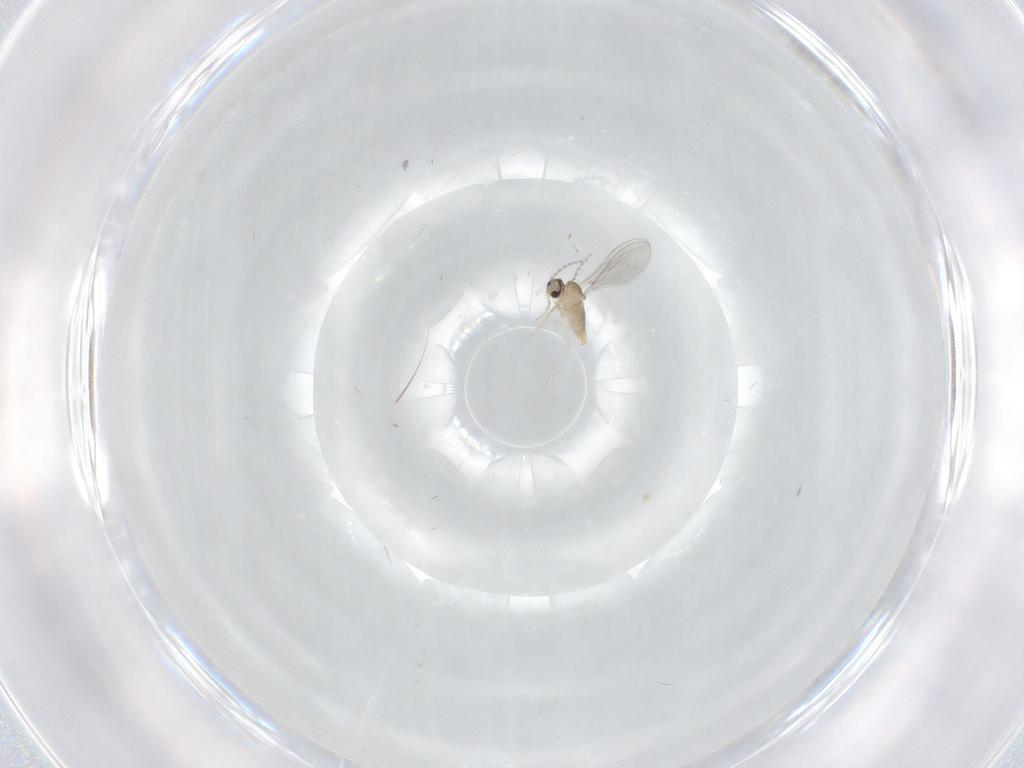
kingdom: Animalia
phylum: Arthropoda
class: Insecta
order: Diptera
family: Cecidomyiidae
